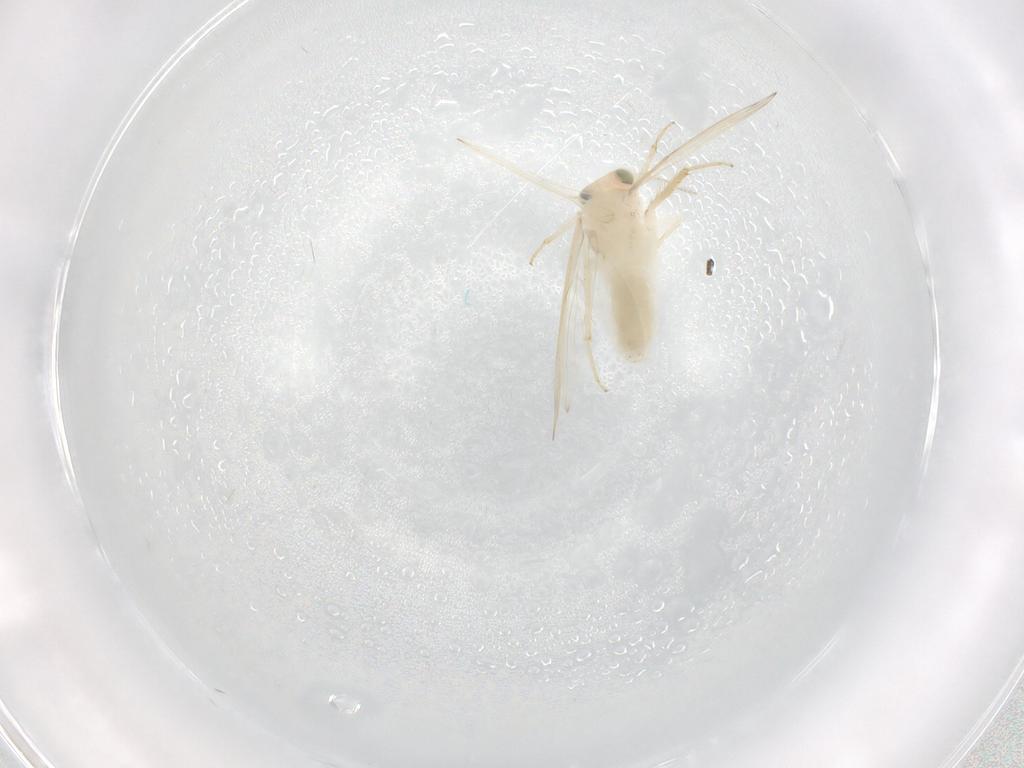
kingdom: Animalia
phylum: Arthropoda
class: Insecta
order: Psocodea
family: Lepidopsocidae
